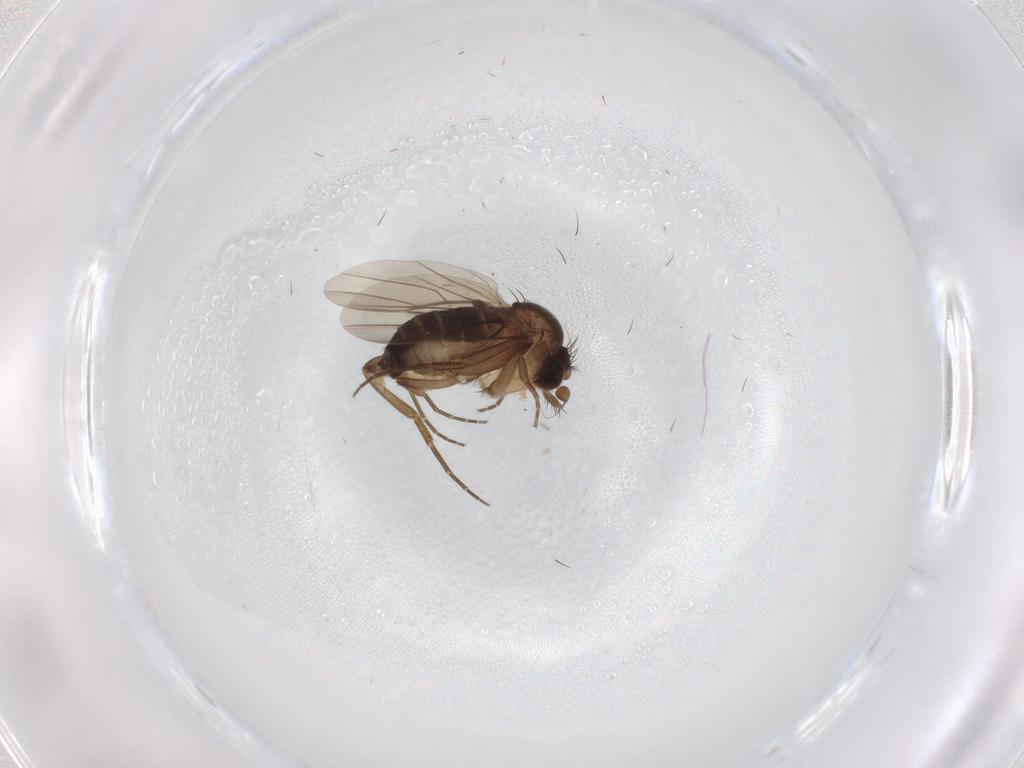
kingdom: Animalia
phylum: Arthropoda
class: Insecta
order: Diptera
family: Phoridae
